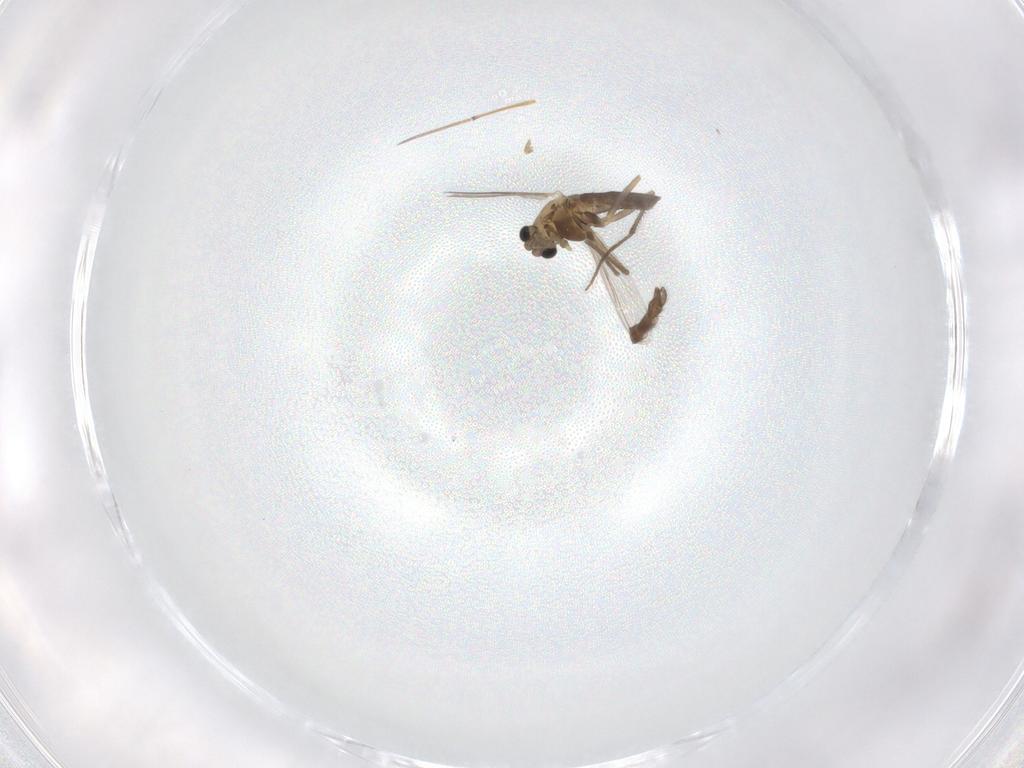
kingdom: Animalia
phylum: Arthropoda
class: Insecta
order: Diptera
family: Chironomidae
